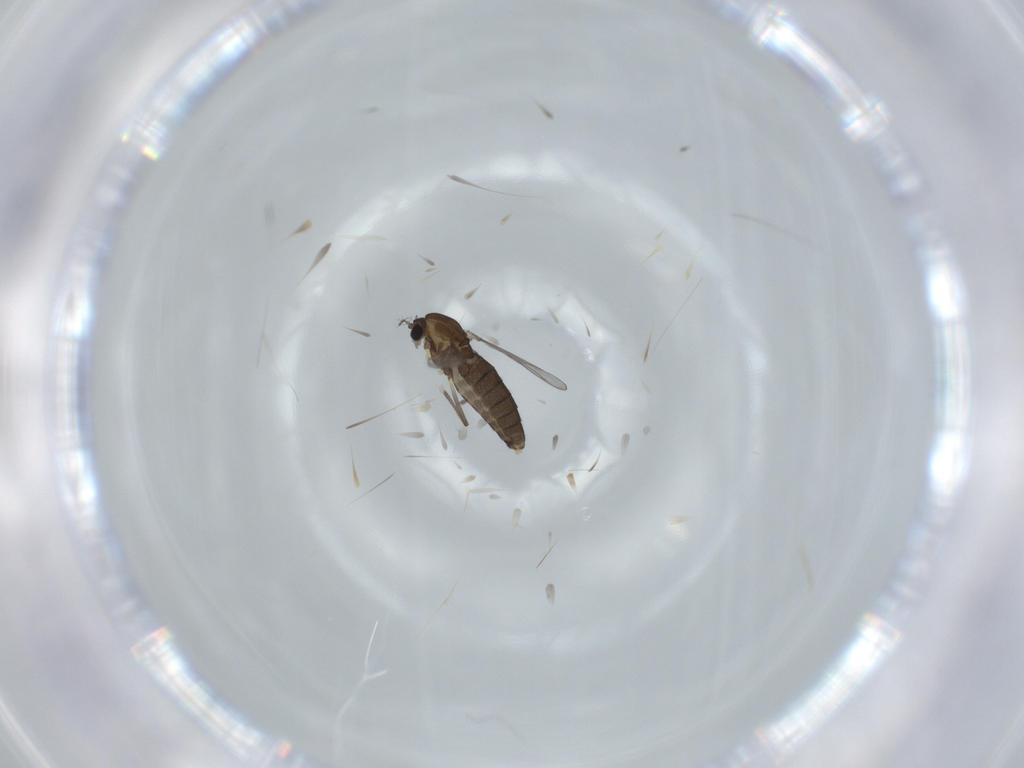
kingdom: Animalia
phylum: Arthropoda
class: Insecta
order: Diptera
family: Chironomidae
